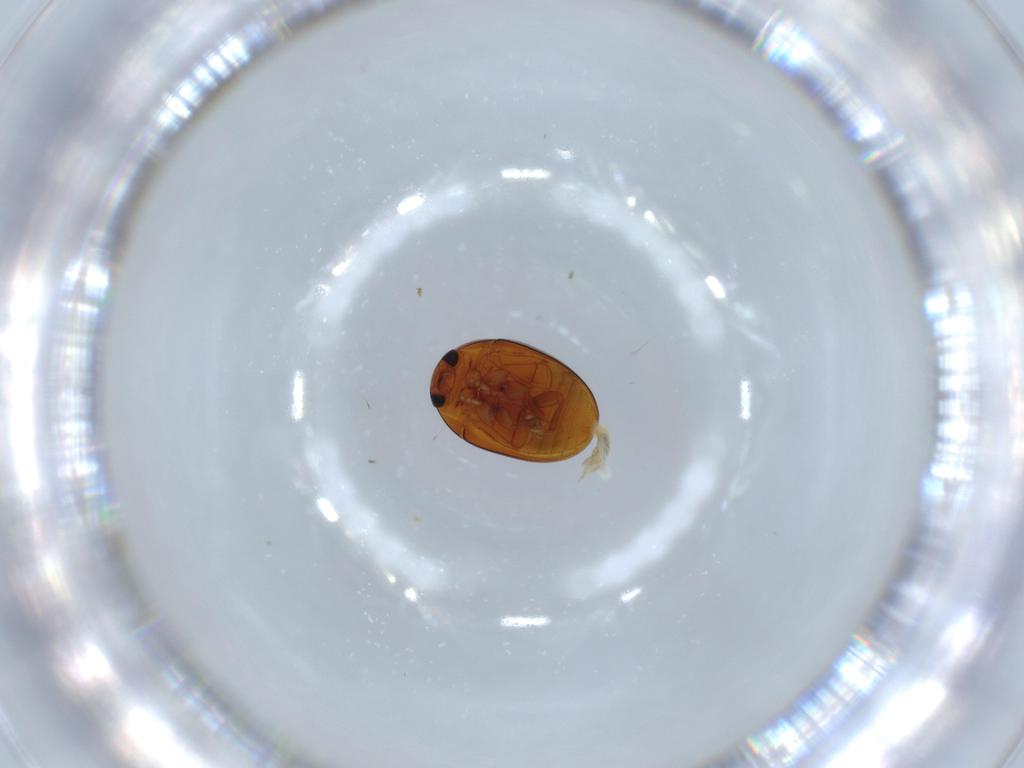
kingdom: Animalia
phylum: Arthropoda
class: Insecta
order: Coleoptera
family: Phalacridae
